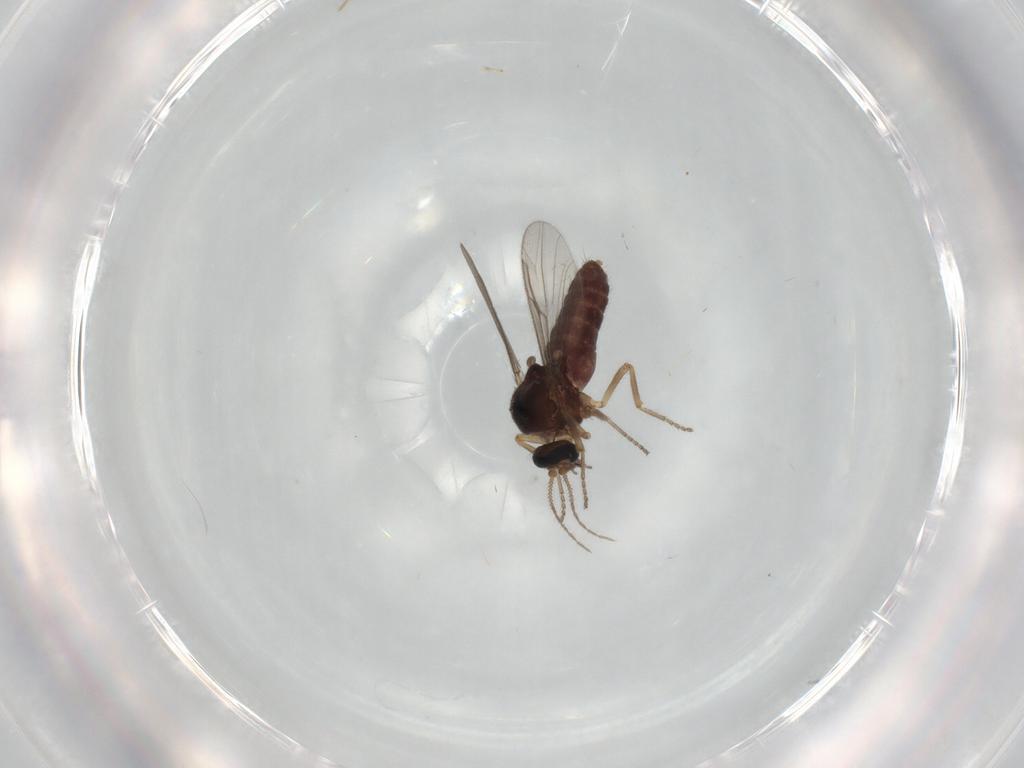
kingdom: Animalia
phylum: Arthropoda
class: Insecta
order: Diptera
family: Ceratopogonidae
